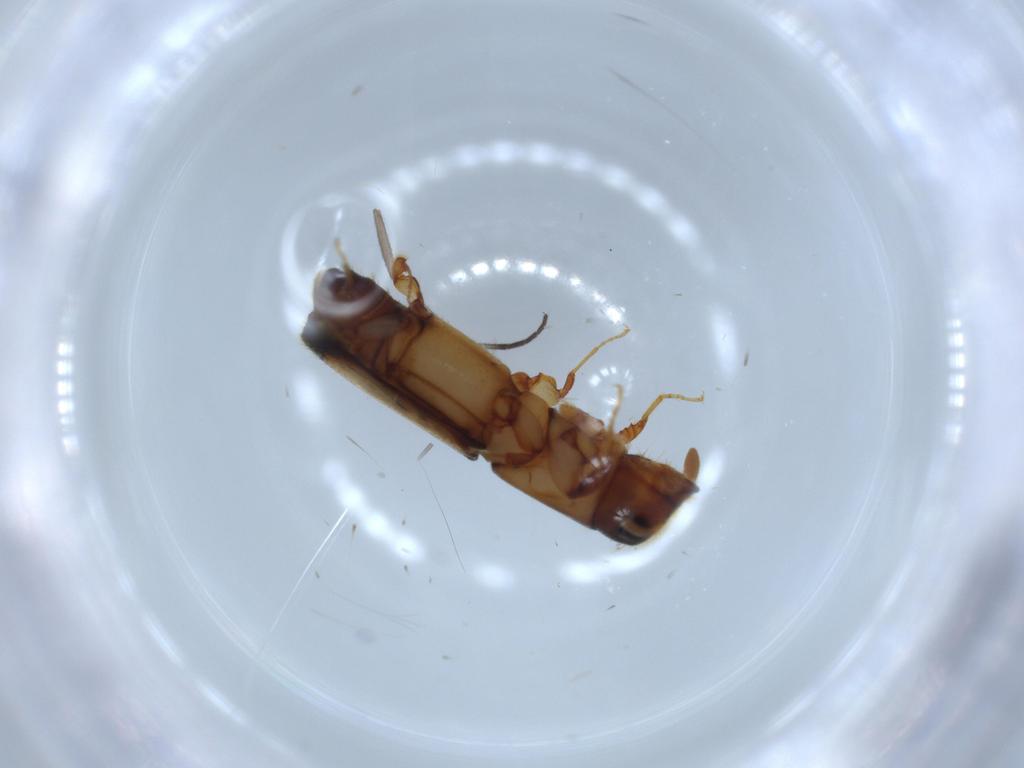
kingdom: Animalia
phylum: Arthropoda
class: Insecta
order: Coleoptera
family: Curculionidae
